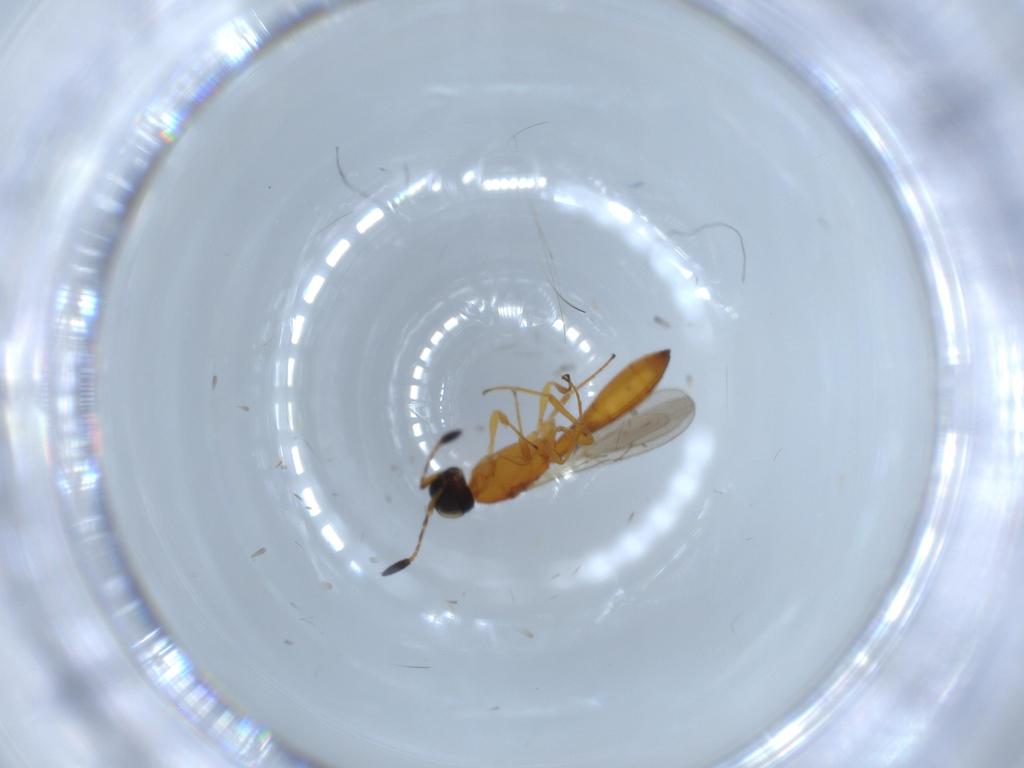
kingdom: Animalia
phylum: Arthropoda
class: Insecta
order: Hymenoptera
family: Scelionidae
